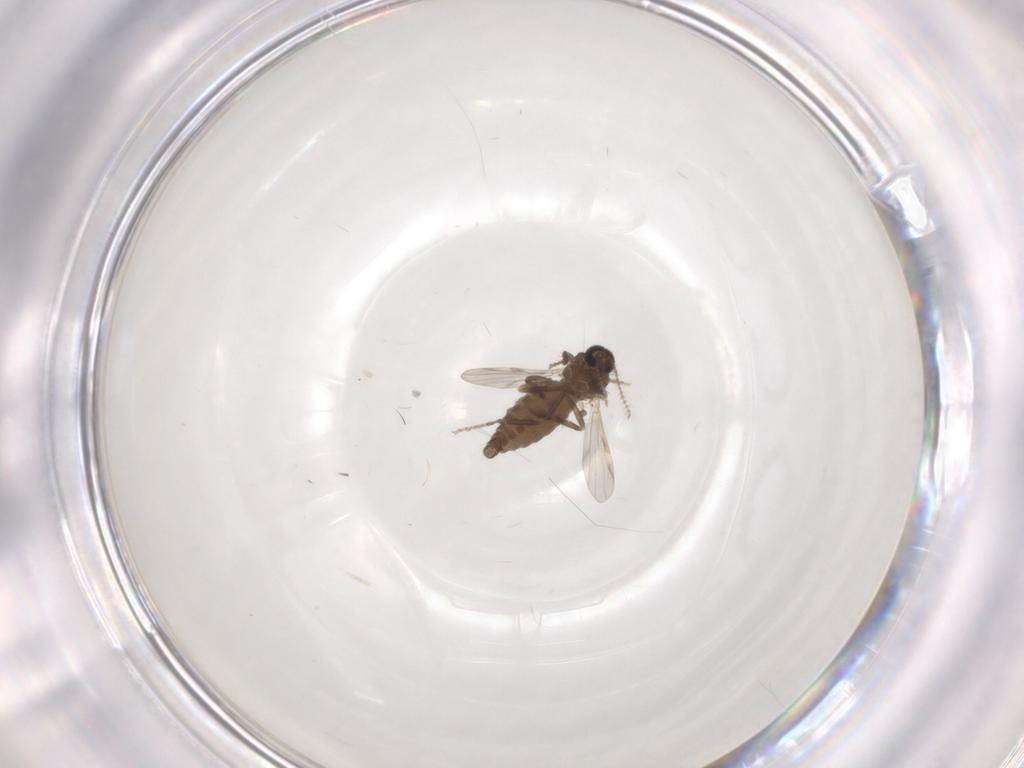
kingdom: Animalia
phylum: Arthropoda
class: Insecta
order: Diptera
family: Ceratopogonidae
